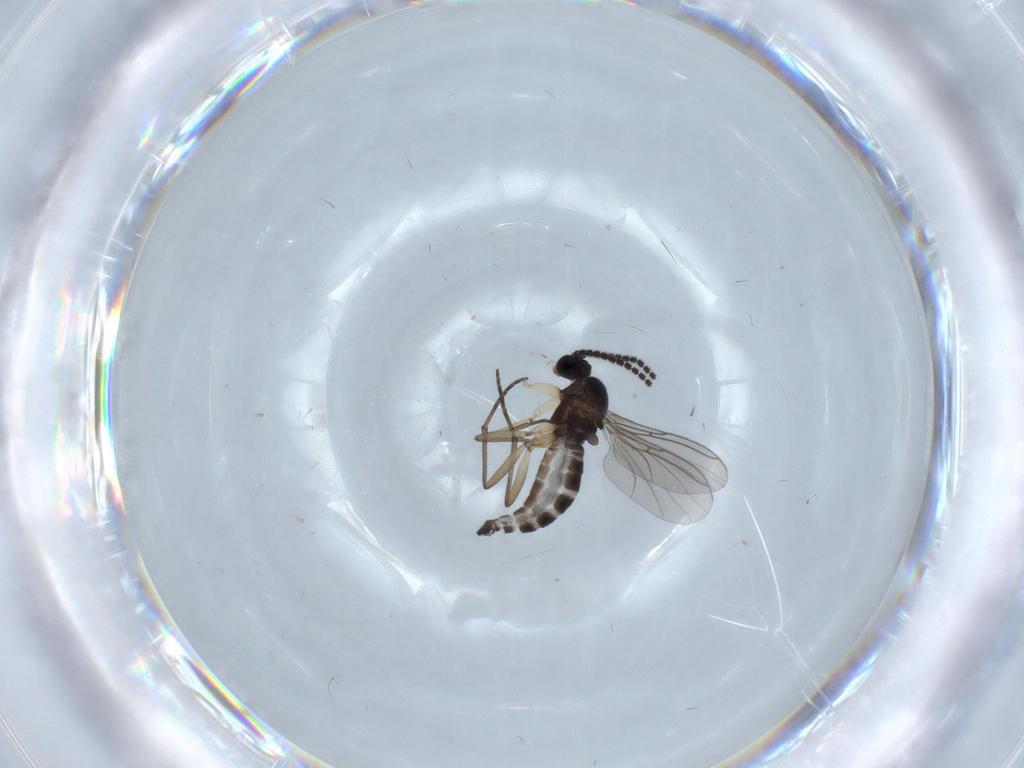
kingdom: Animalia
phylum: Arthropoda
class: Insecta
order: Diptera
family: Sciaridae
